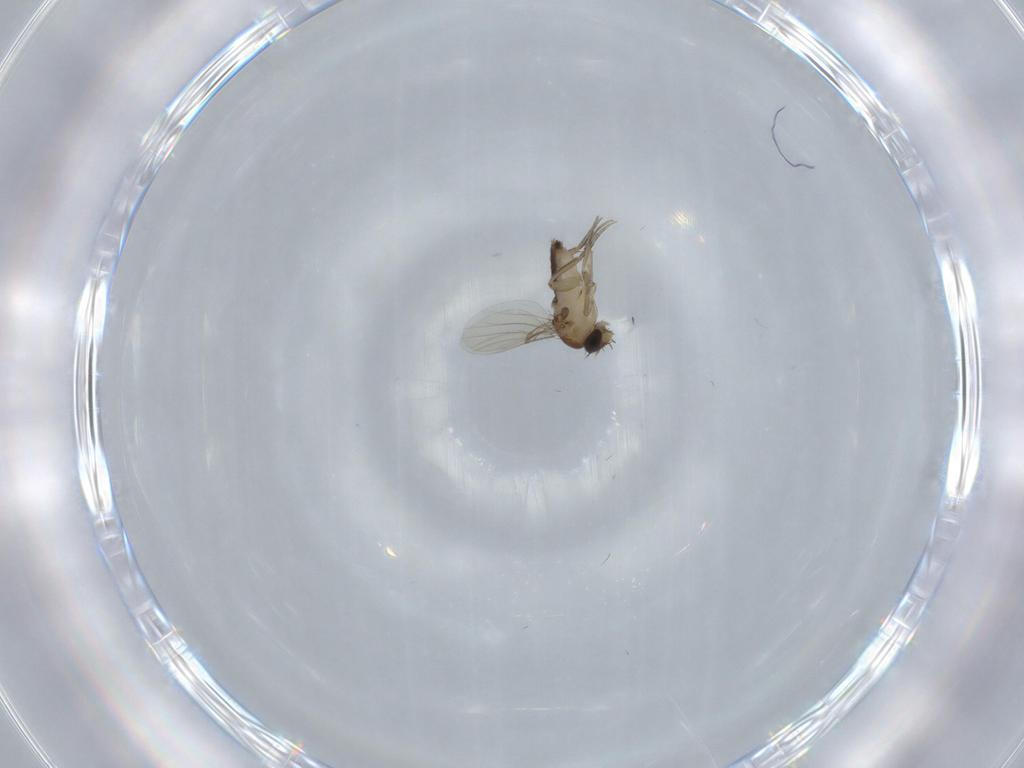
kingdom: Animalia
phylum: Arthropoda
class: Insecta
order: Diptera
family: Phoridae
